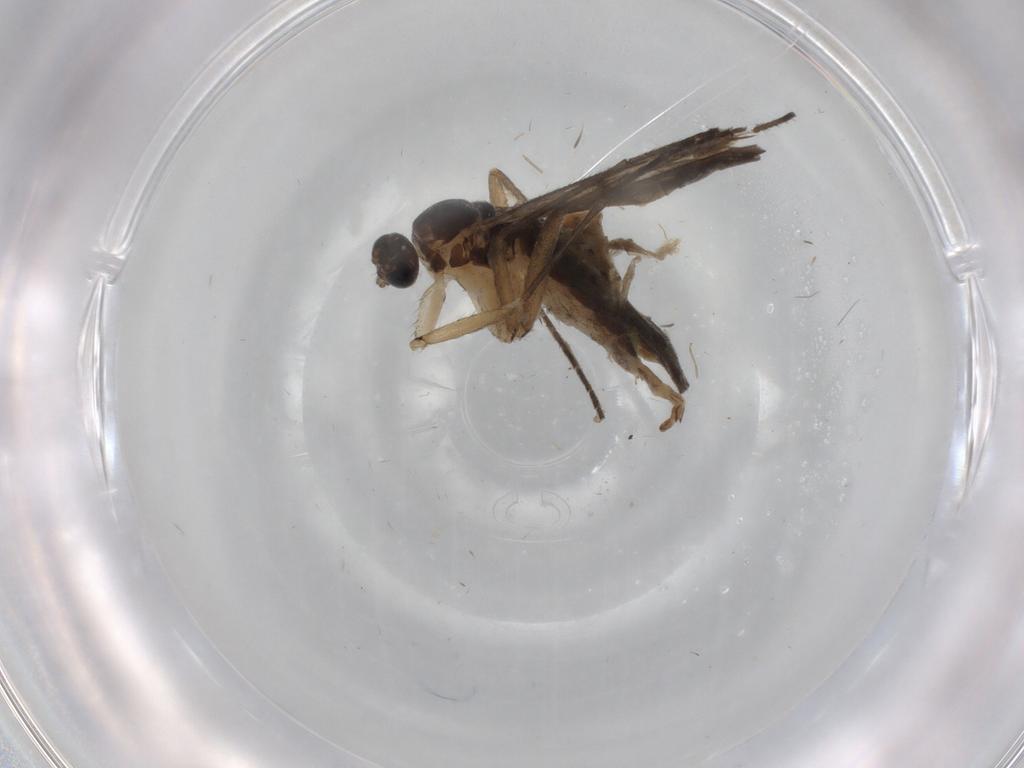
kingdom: Animalia
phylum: Arthropoda
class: Insecta
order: Diptera
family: Sciaridae
